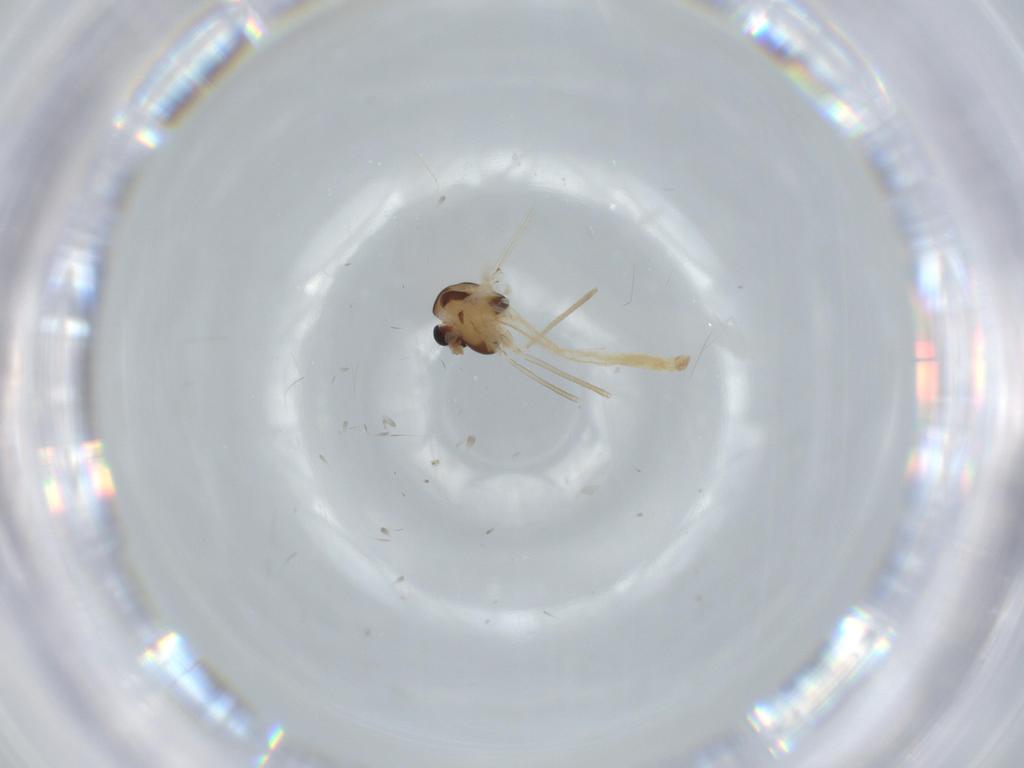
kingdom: Animalia
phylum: Arthropoda
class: Insecta
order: Diptera
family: Chironomidae
